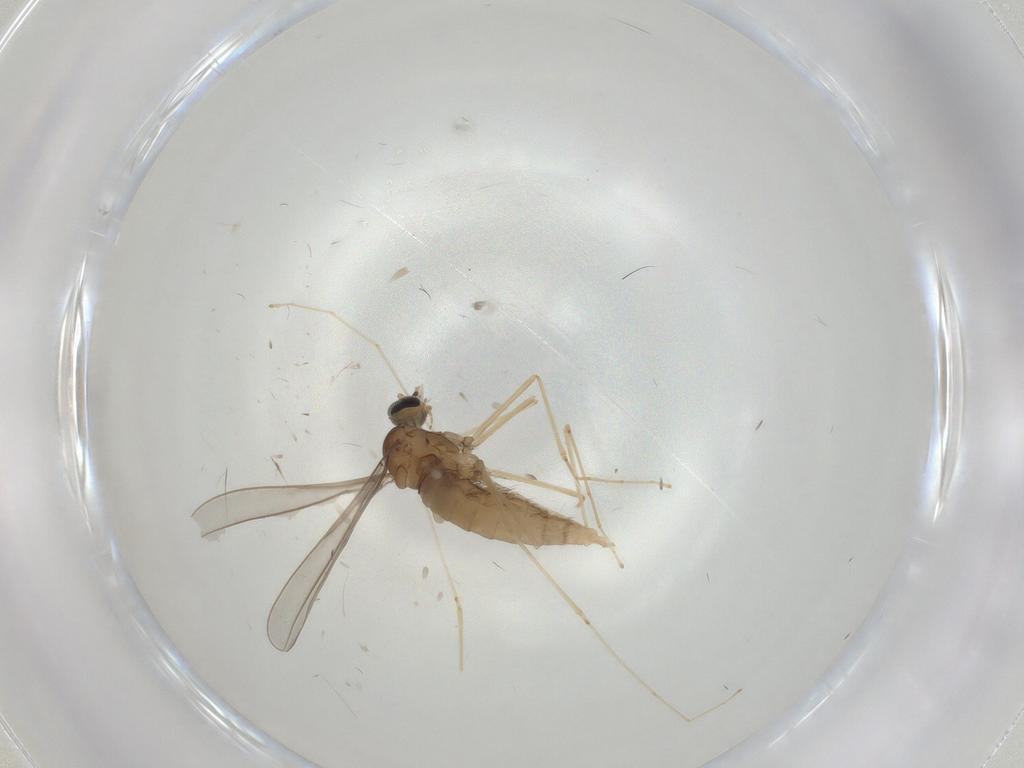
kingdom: Animalia
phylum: Arthropoda
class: Insecta
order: Diptera
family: Cecidomyiidae
